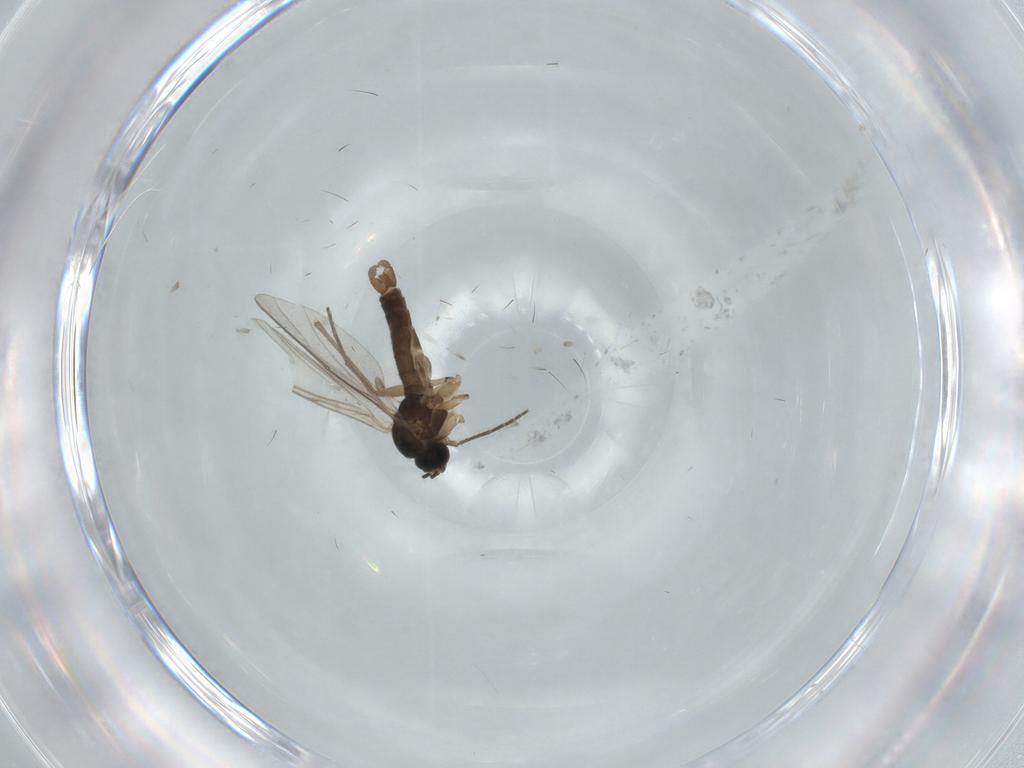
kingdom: Animalia
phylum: Arthropoda
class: Insecta
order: Diptera
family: Sciaridae
